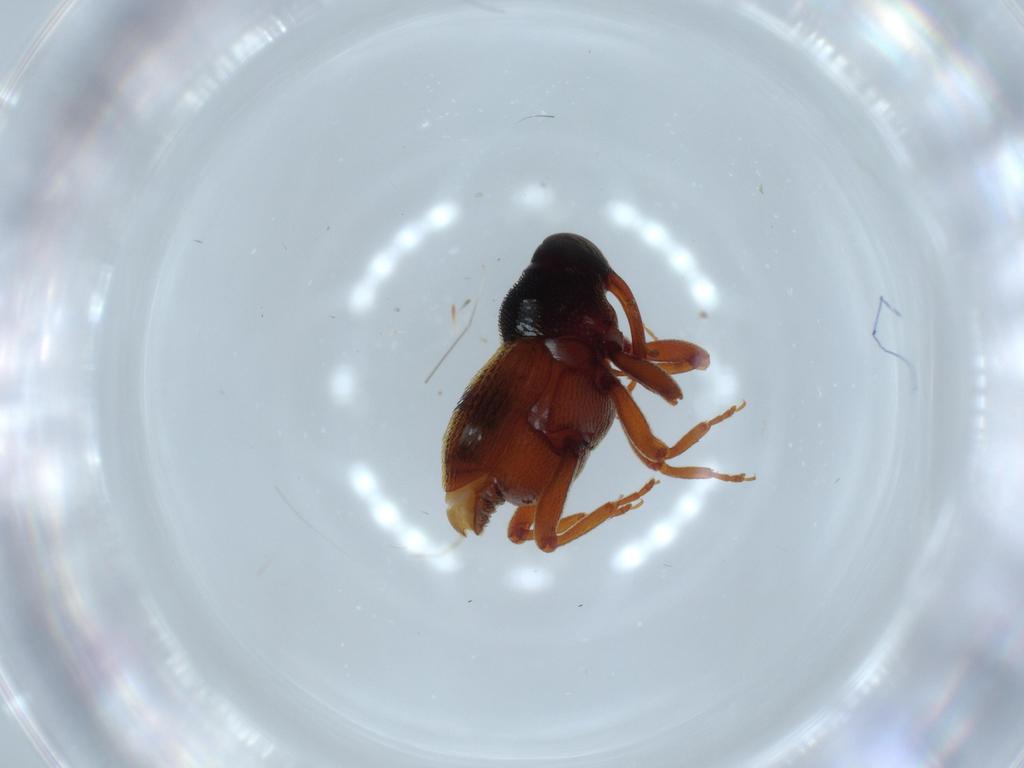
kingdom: Animalia
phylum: Arthropoda
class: Insecta
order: Coleoptera
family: Curculionidae
